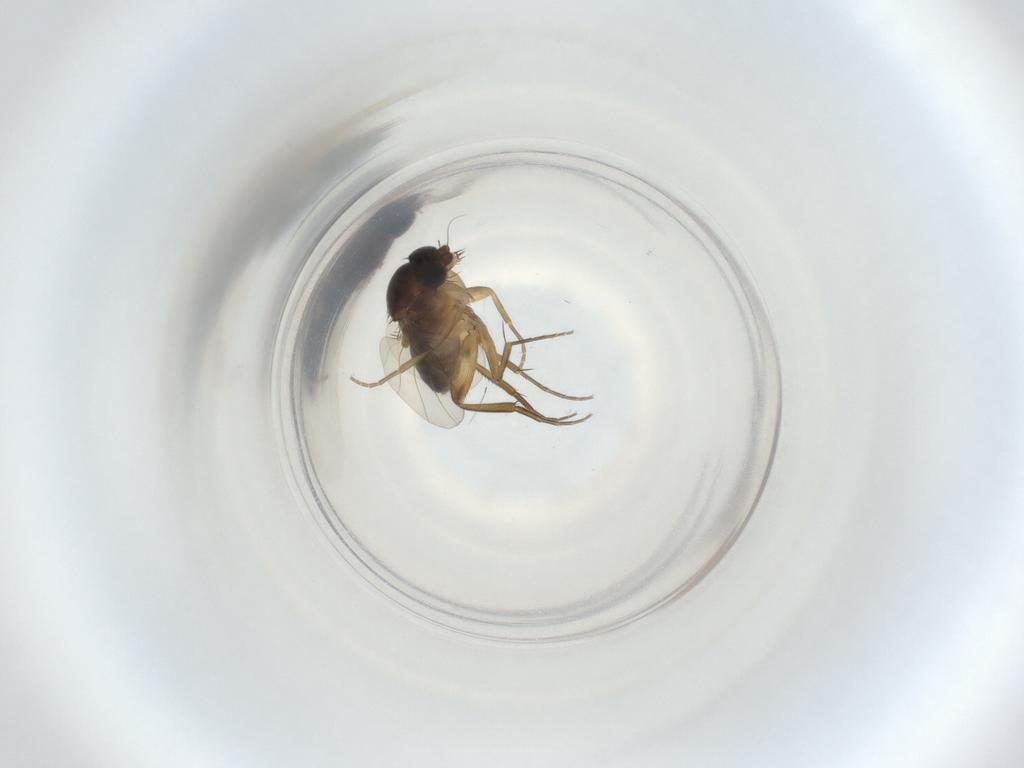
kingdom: Animalia
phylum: Arthropoda
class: Insecta
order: Diptera
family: Phoridae
